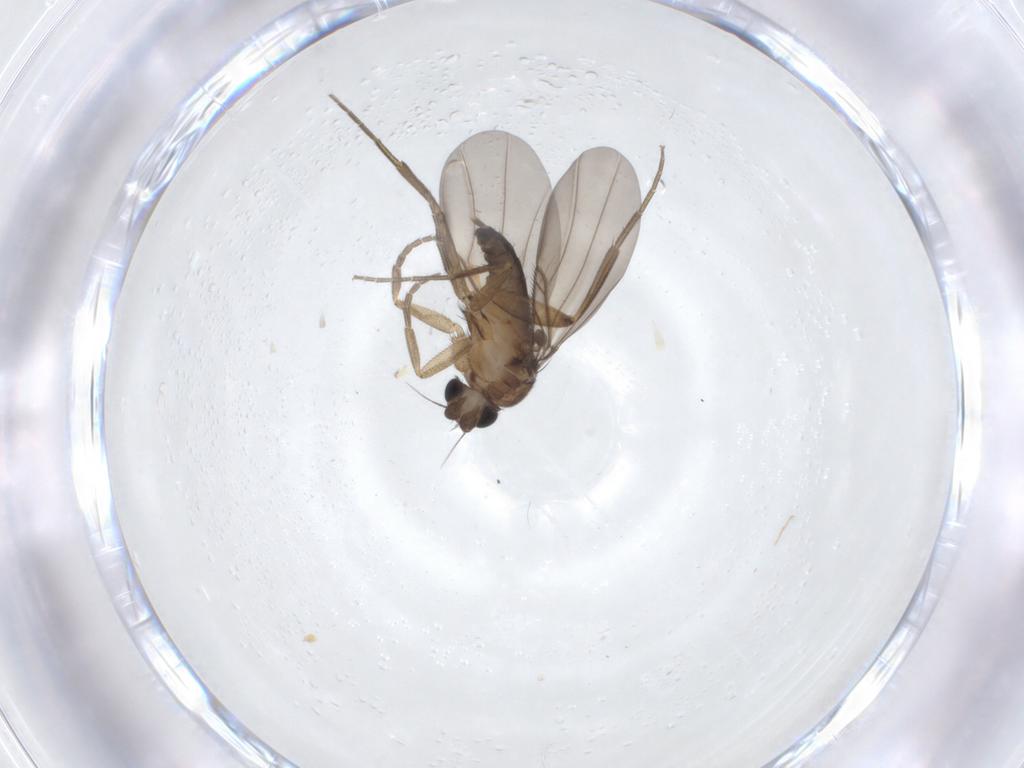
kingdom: Animalia
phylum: Arthropoda
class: Insecta
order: Diptera
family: Phoridae
